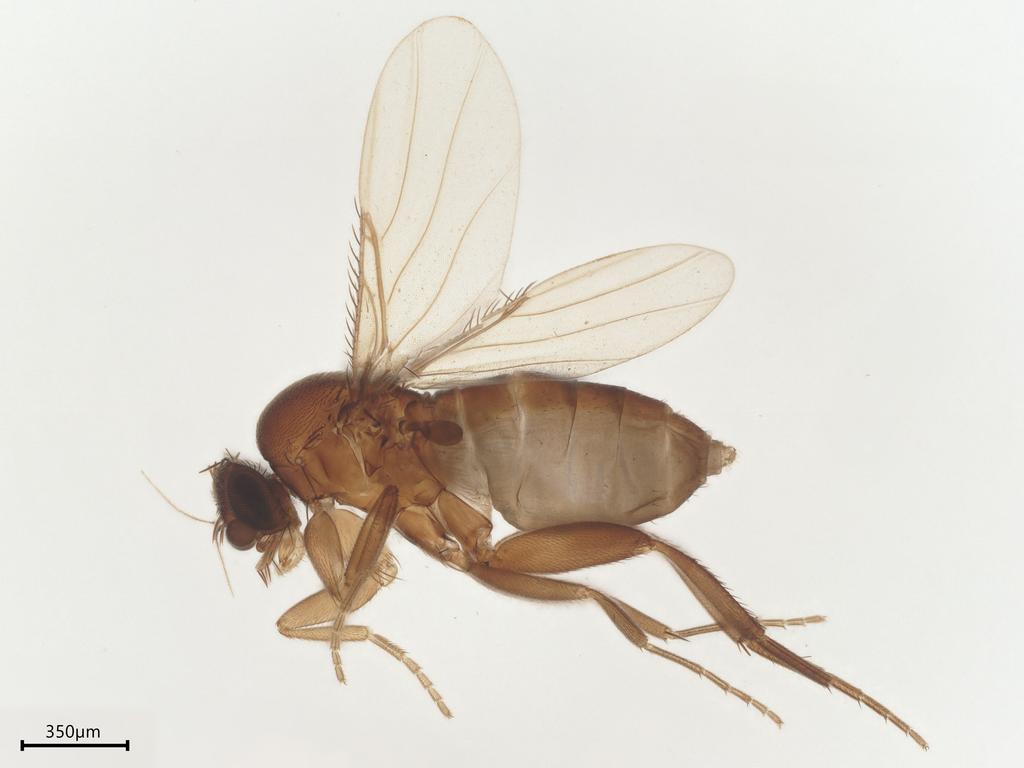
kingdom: Animalia
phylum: Arthropoda
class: Insecta
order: Diptera
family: Phoridae
